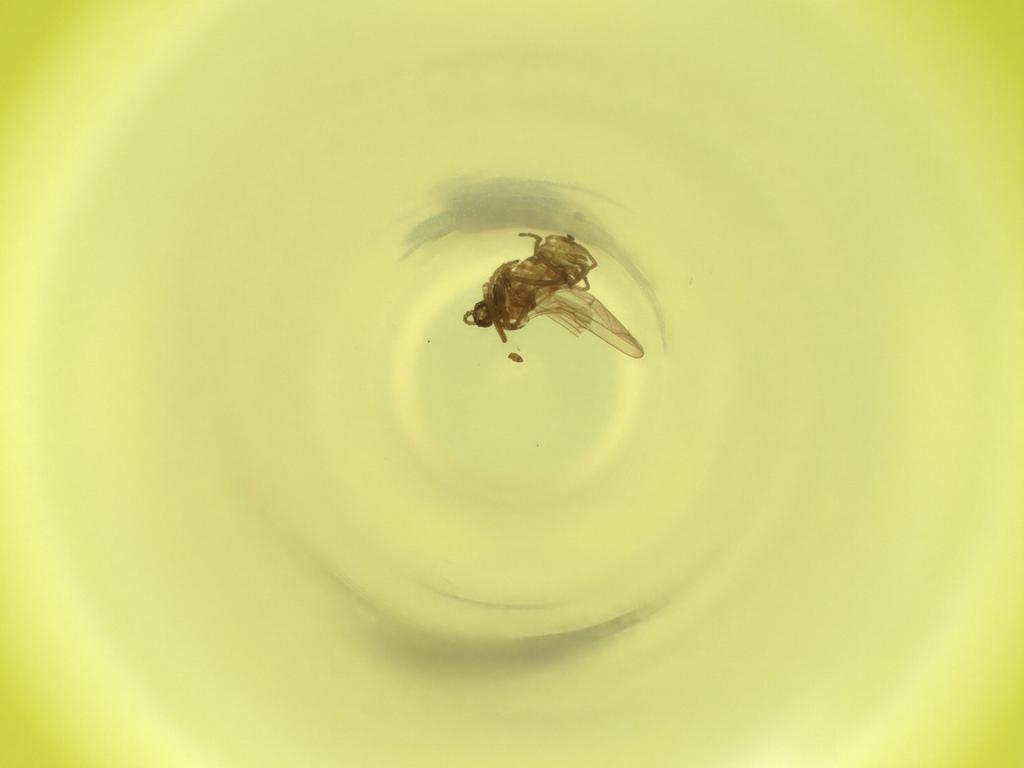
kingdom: Animalia
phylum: Arthropoda
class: Insecta
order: Diptera
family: Cecidomyiidae
